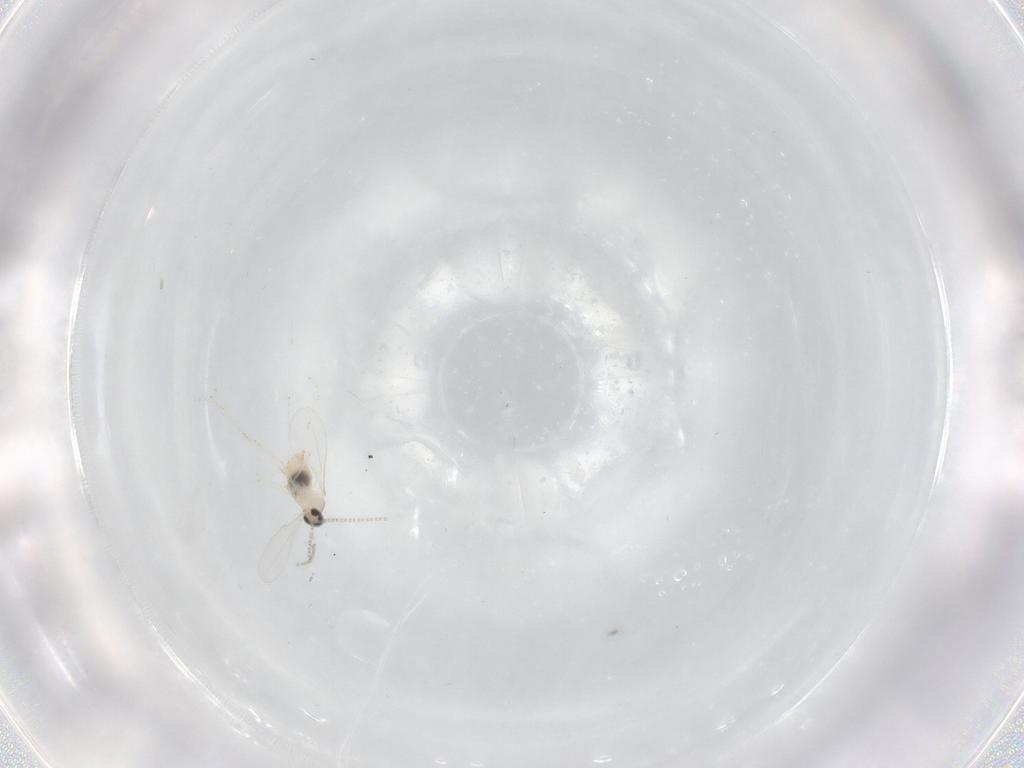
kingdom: Animalia
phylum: Arthropoda
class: Insecta
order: Diptera
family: Cecidomyiidae
